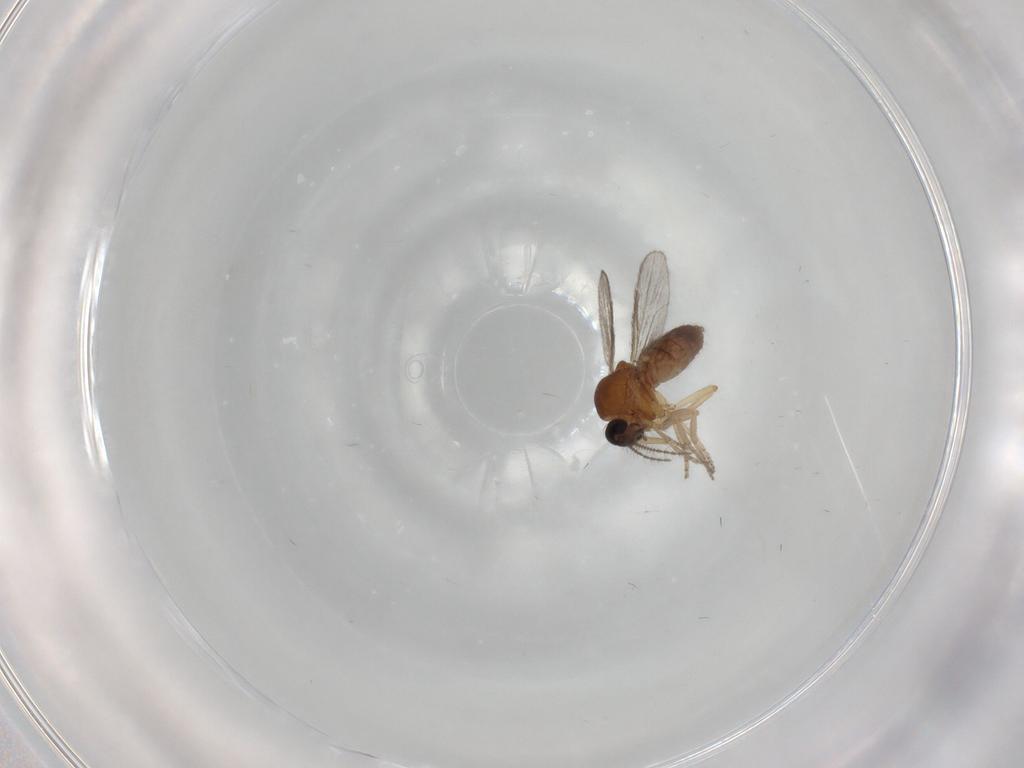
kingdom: Animalia
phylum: Arthropoda
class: Insecta
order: Diptera
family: Ceratopogonidae
